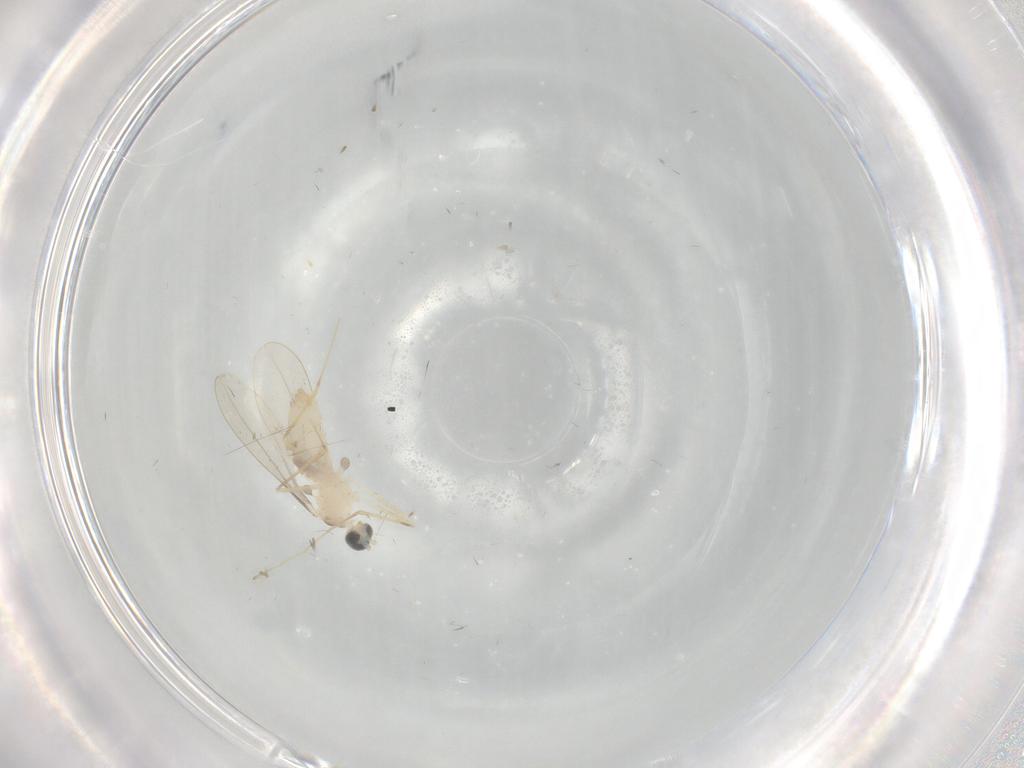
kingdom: Animalia
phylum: Arthropoda
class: Insecta
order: Diptera
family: Cecidomyiidae
